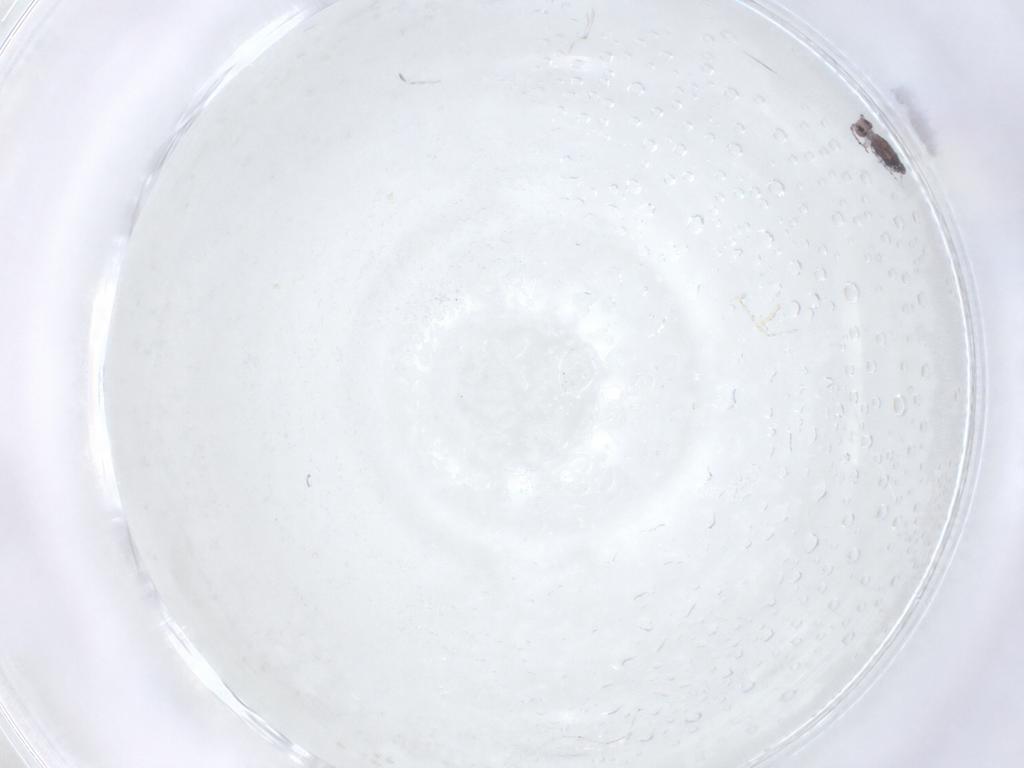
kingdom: Animalia
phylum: Arthropoda
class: Collembola
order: Symphypleona
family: Bourletiellidae
